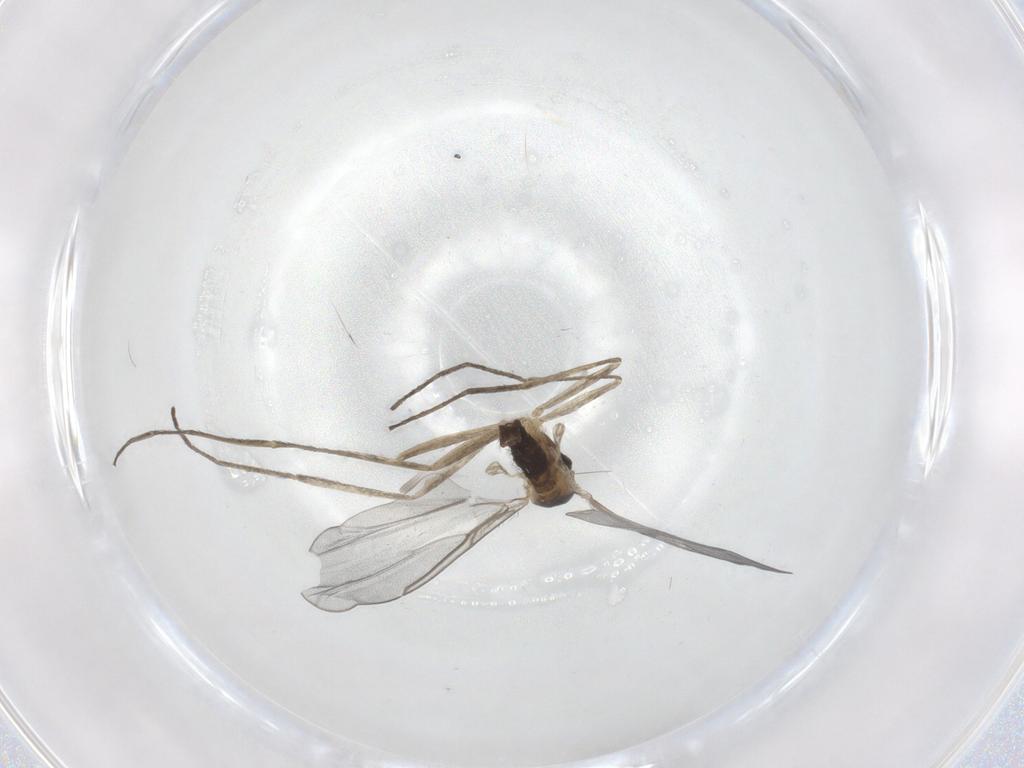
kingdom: Animalia
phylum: Arthropoda
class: Insecta
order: Diptera
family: Cecidomyiidae
